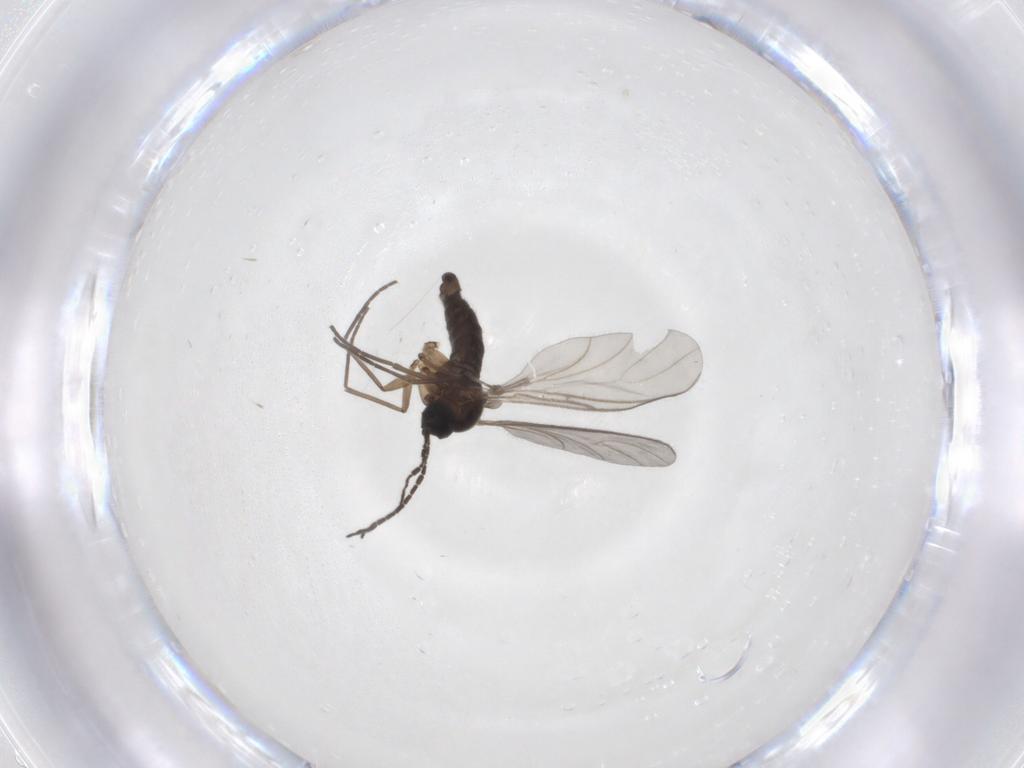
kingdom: Animalia
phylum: Arthropoda
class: Insecta
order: Diptera
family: Sciaridae
